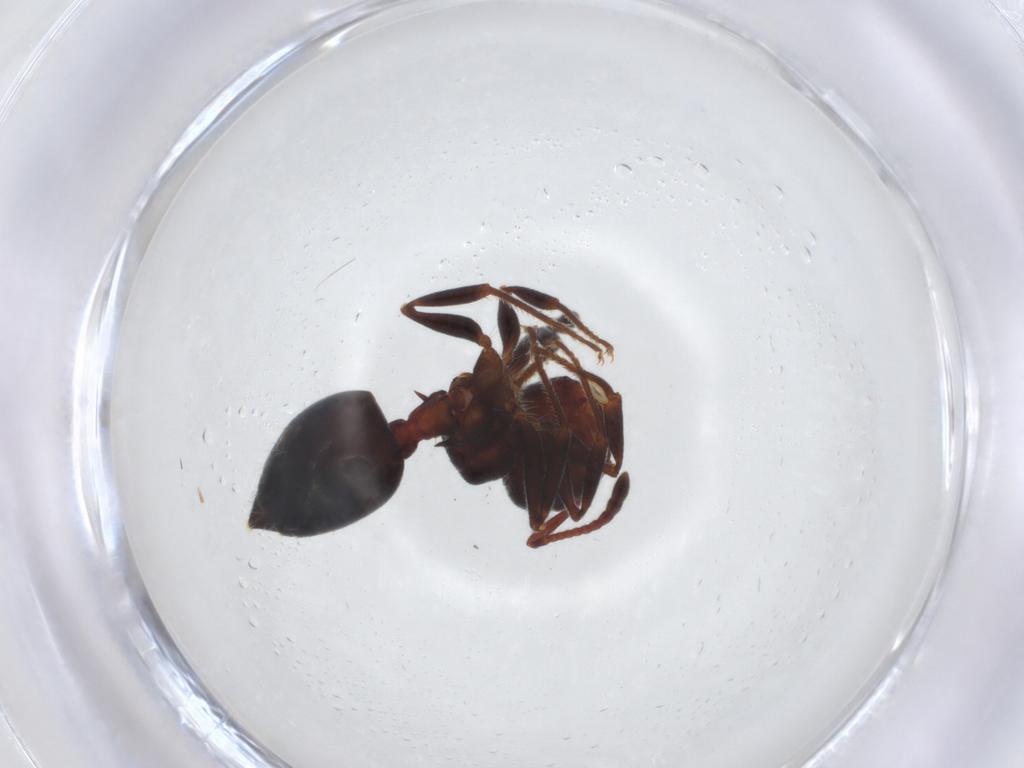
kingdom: Animalia
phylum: Arthropoda
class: Insecta
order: Hymenoptera
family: Formicidae
